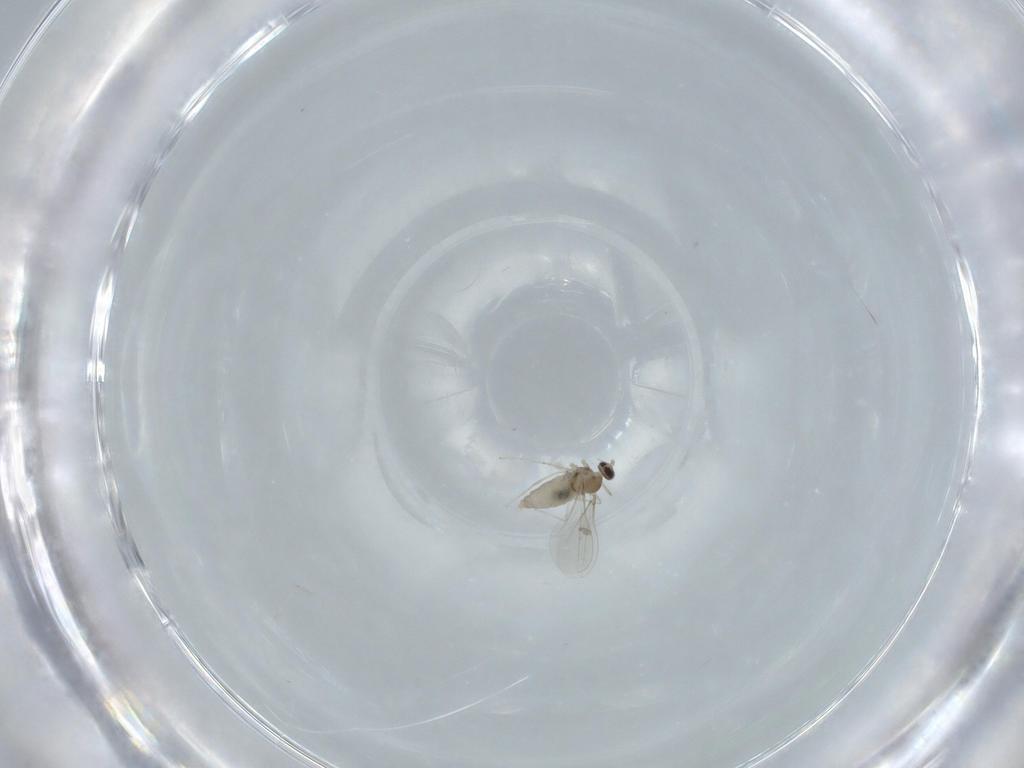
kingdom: Animalia
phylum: Arthropoda
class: Insecta
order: Diptera
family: Cecidomyiidae
